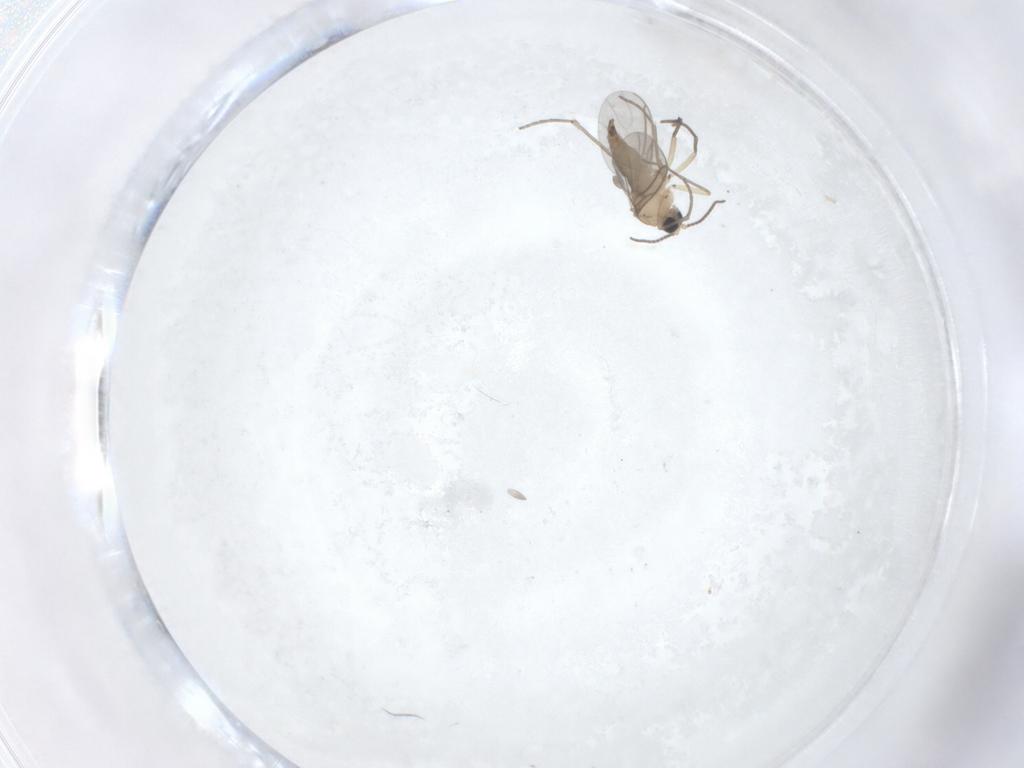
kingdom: Animalia
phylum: Arthropoda
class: Insecta
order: Diptera
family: Sciaridae
